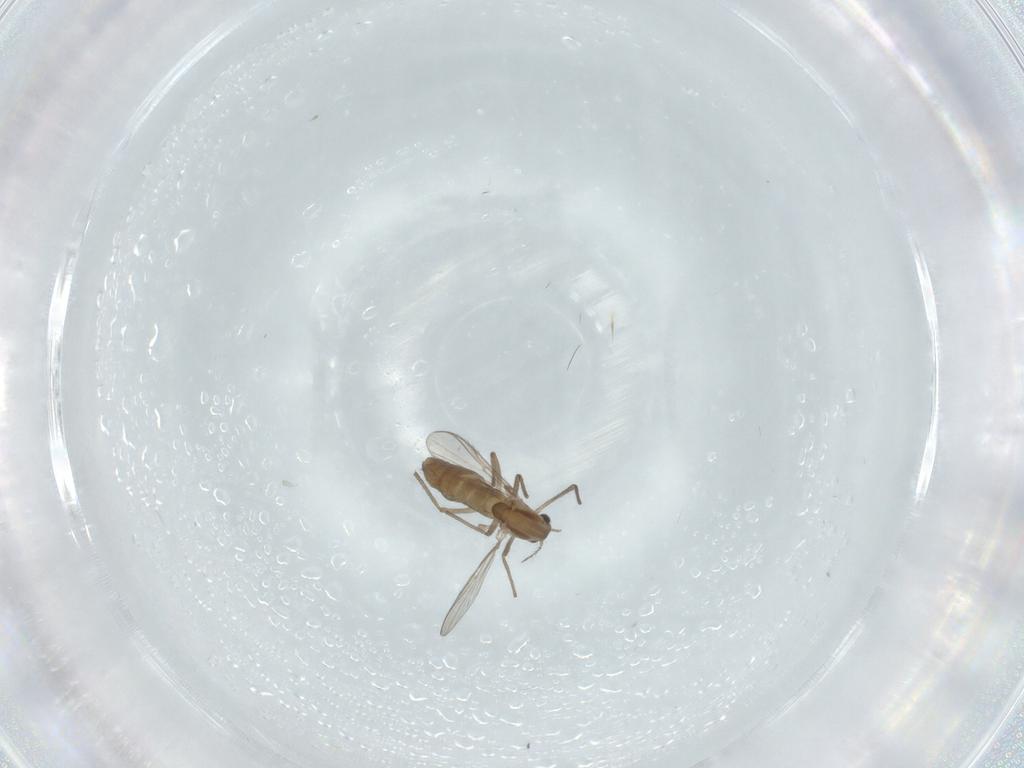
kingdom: Animalia
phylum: Arthropoda
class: Insecta
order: Diptera
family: Chironomidae
